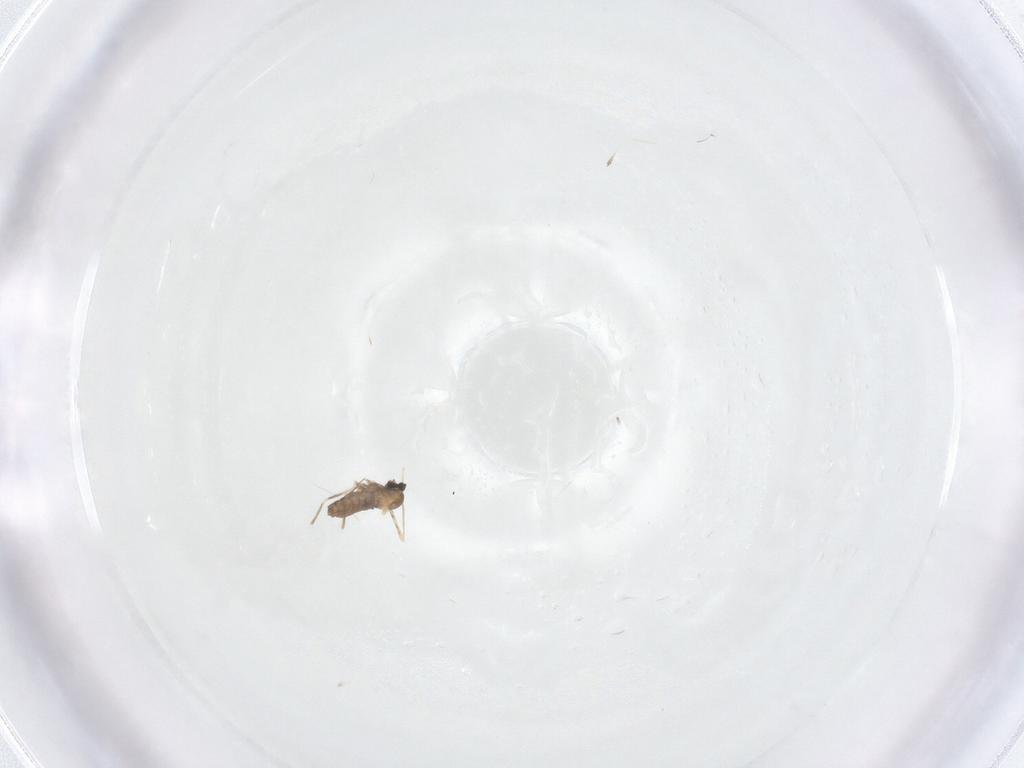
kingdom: Animalia
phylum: Arthropoda
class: Insecta
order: Diptera
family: Cecidomyiidae
